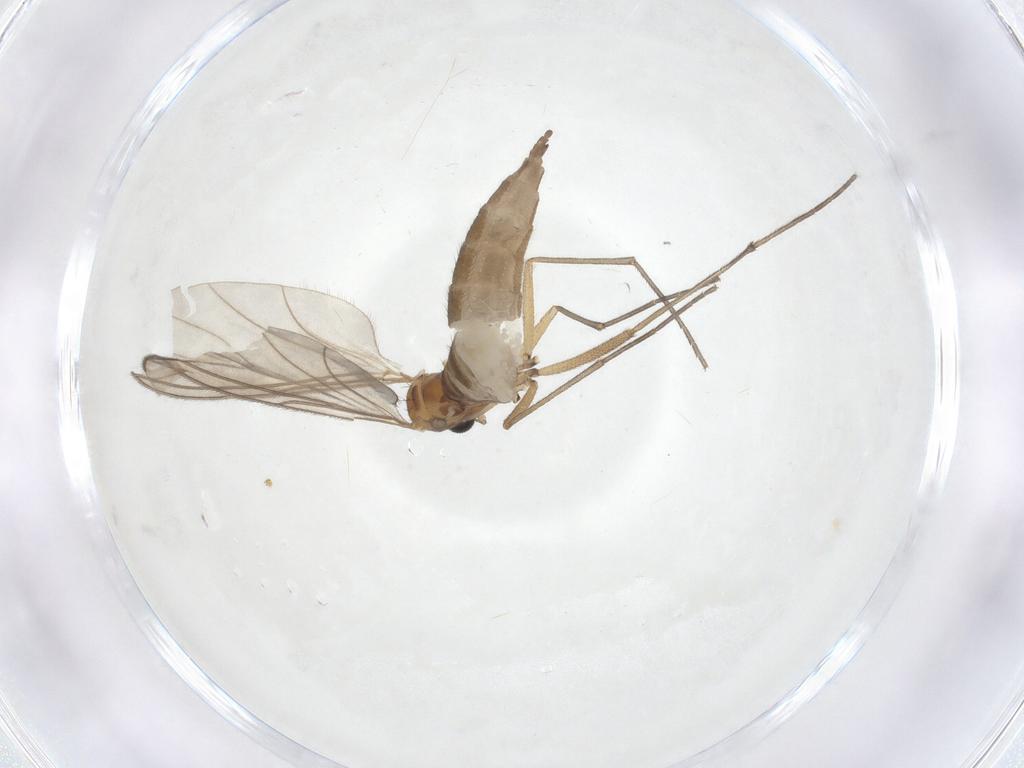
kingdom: Animalia
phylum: Arthropoda
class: Insecta
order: Diptera
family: Sciaridae
